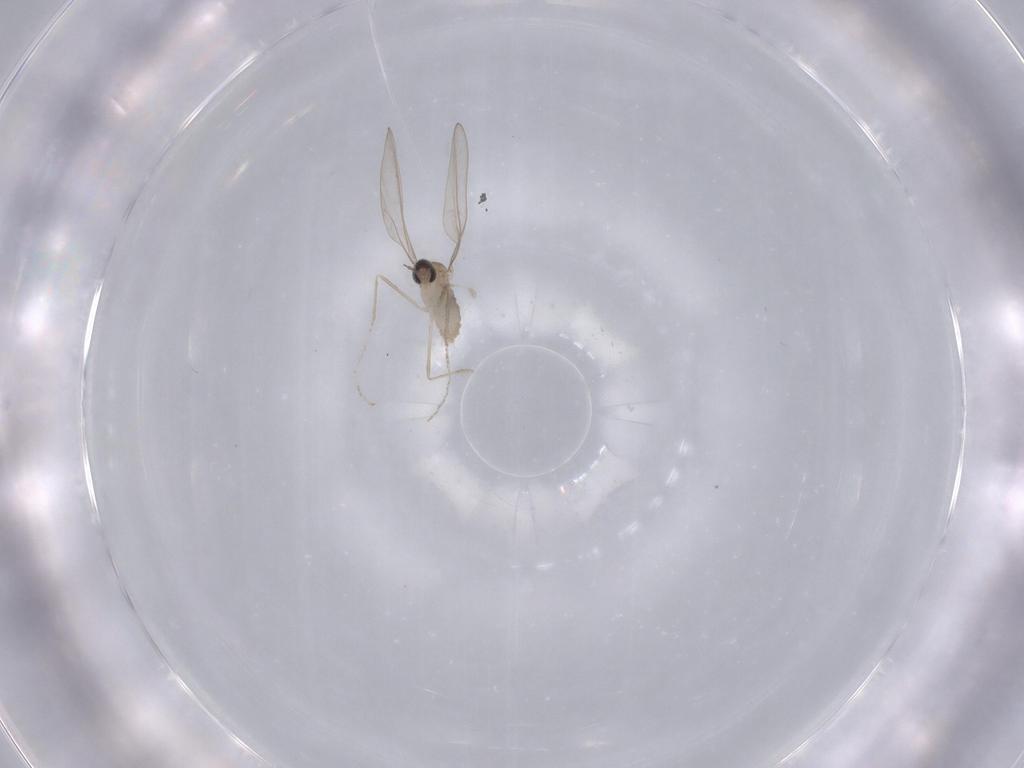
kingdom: Animalia
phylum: Arthropoda
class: Insecta
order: Diptera
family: Cecidomyiidae
